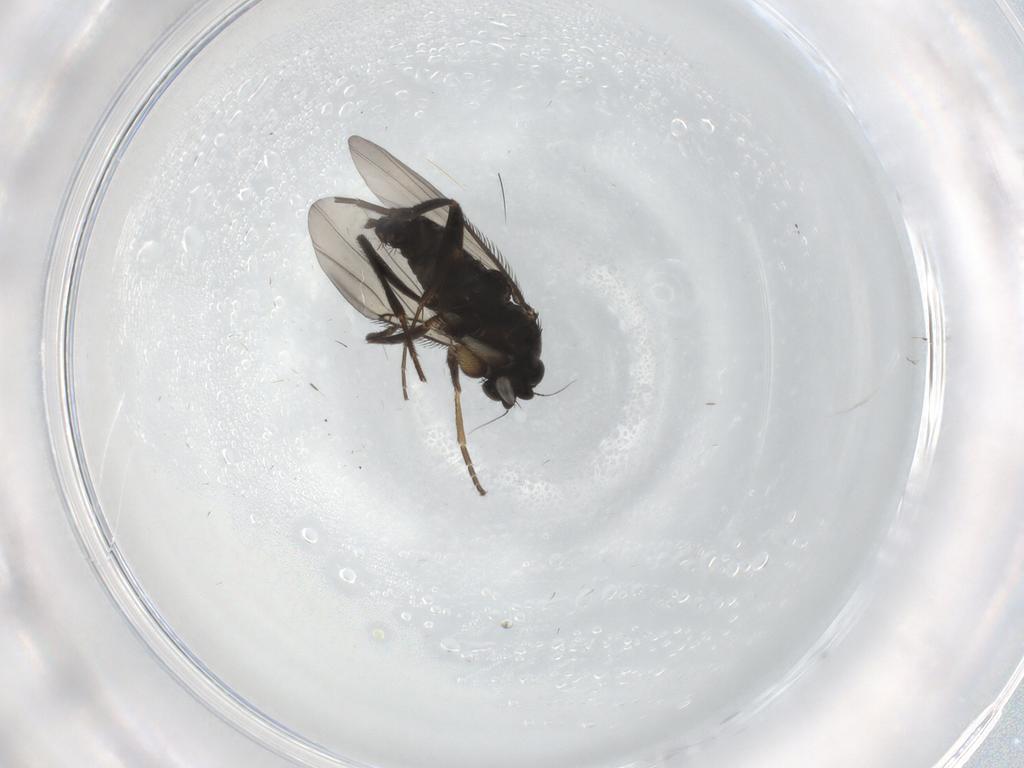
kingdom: Animalia
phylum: Arthropoda
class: Insecta
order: Diptera
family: Phoridae
